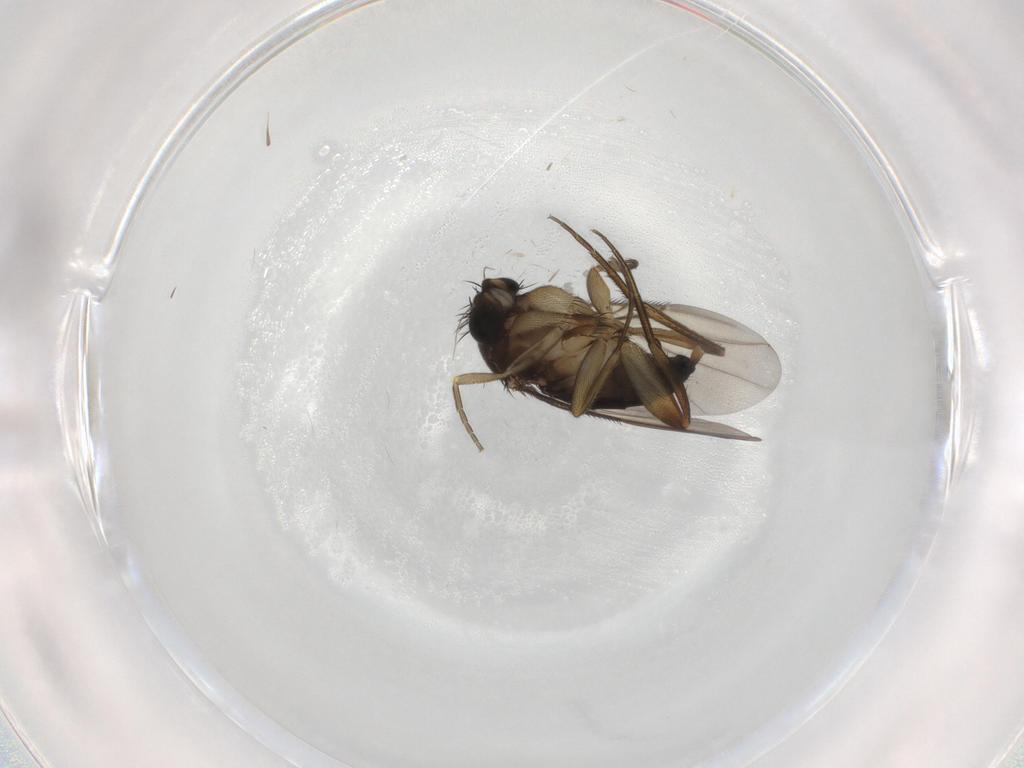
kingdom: Animalia
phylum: Arthropoda
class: Insecta
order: Diptera
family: Phoridae
